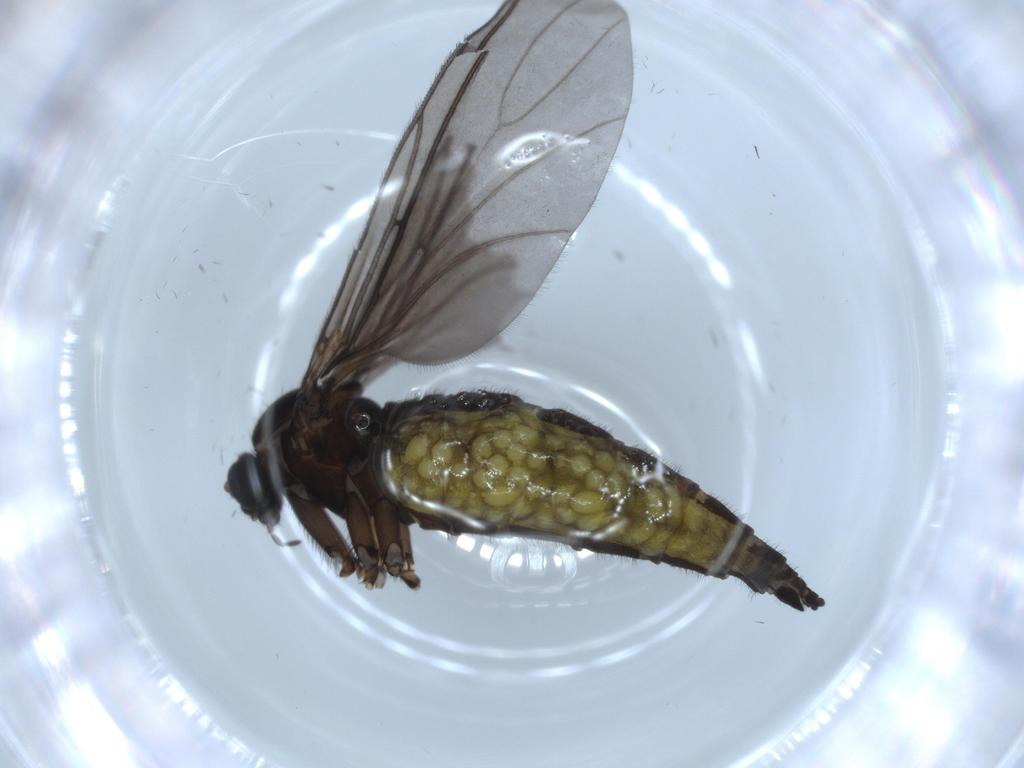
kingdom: Animalia
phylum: Arthropoda
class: Insecta
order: Diptera
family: Sciaridae
